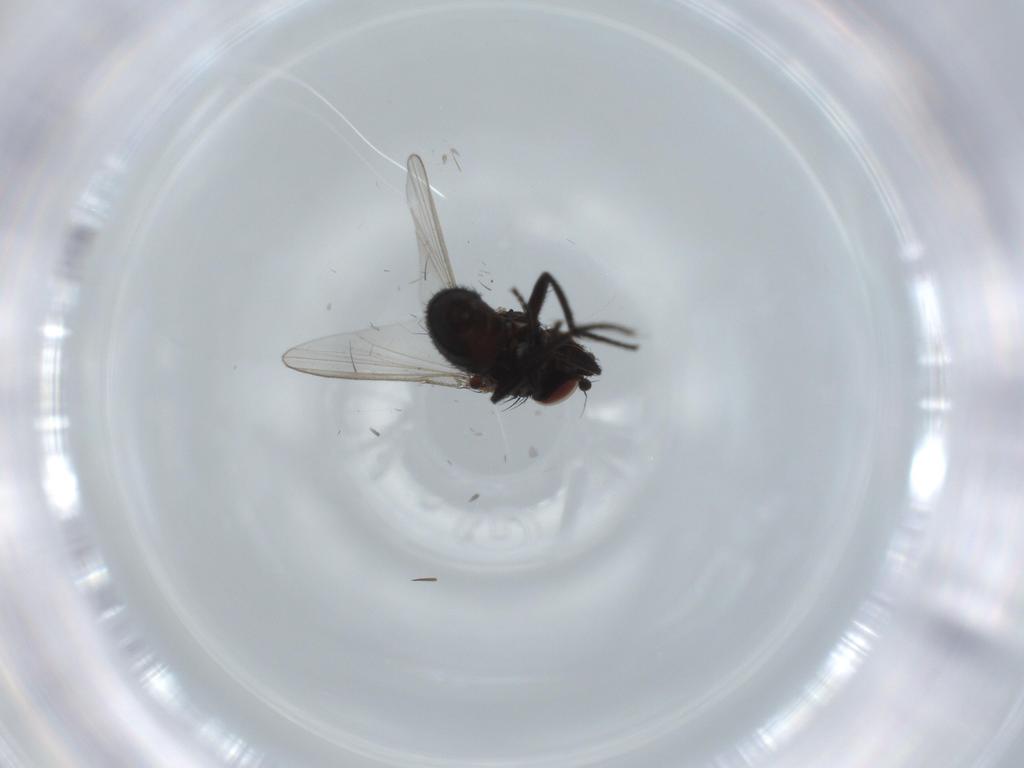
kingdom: Animalia
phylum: Arthropoda
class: Insecta
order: Diptera
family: Milichiidae
